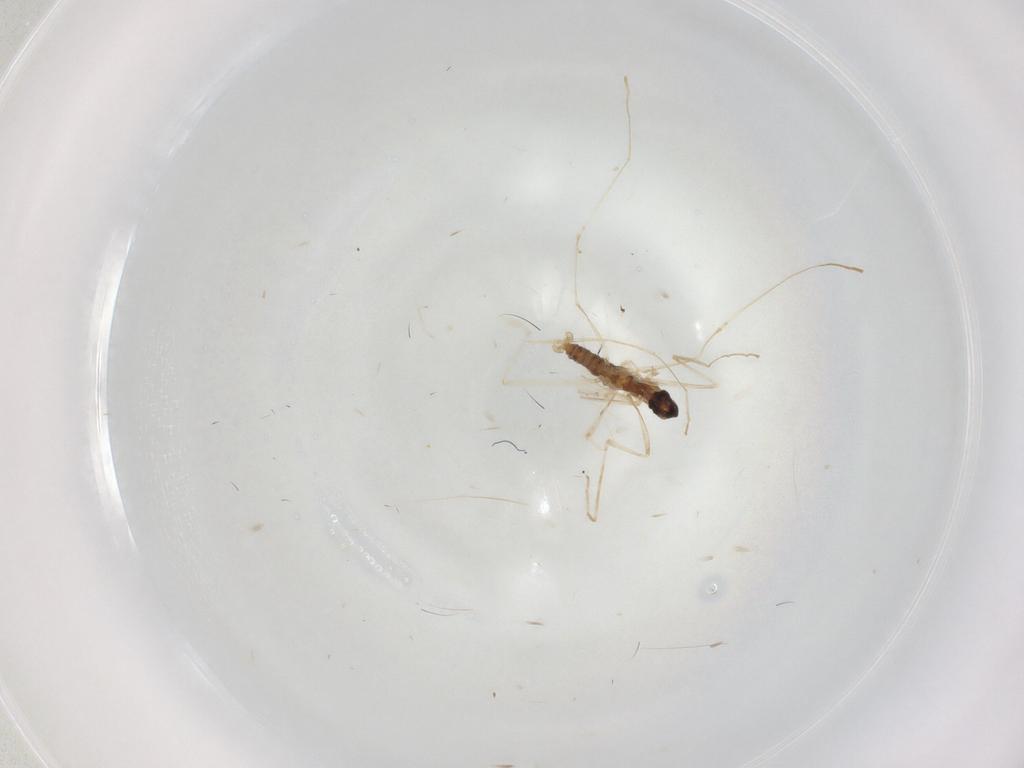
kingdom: Animalia
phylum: Arthropoda
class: Insecta
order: Diptera
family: Cecidomyiidae
